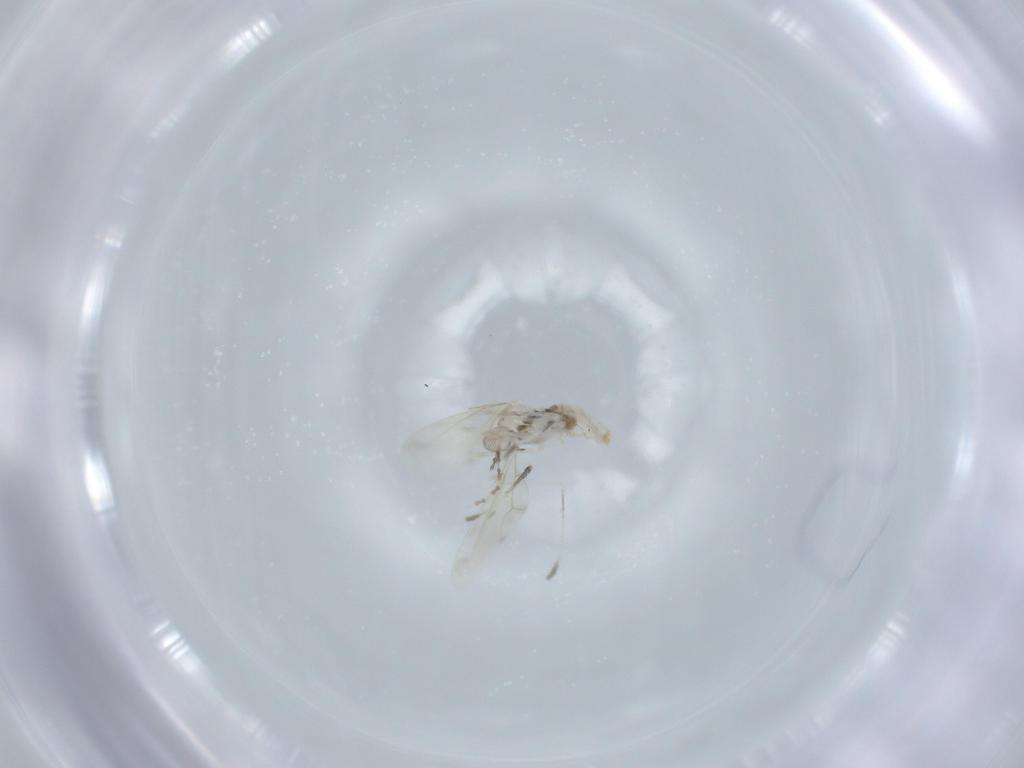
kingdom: Animalia
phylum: Arthropoda
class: Insecta
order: Diptera
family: Cecidomyiidae
